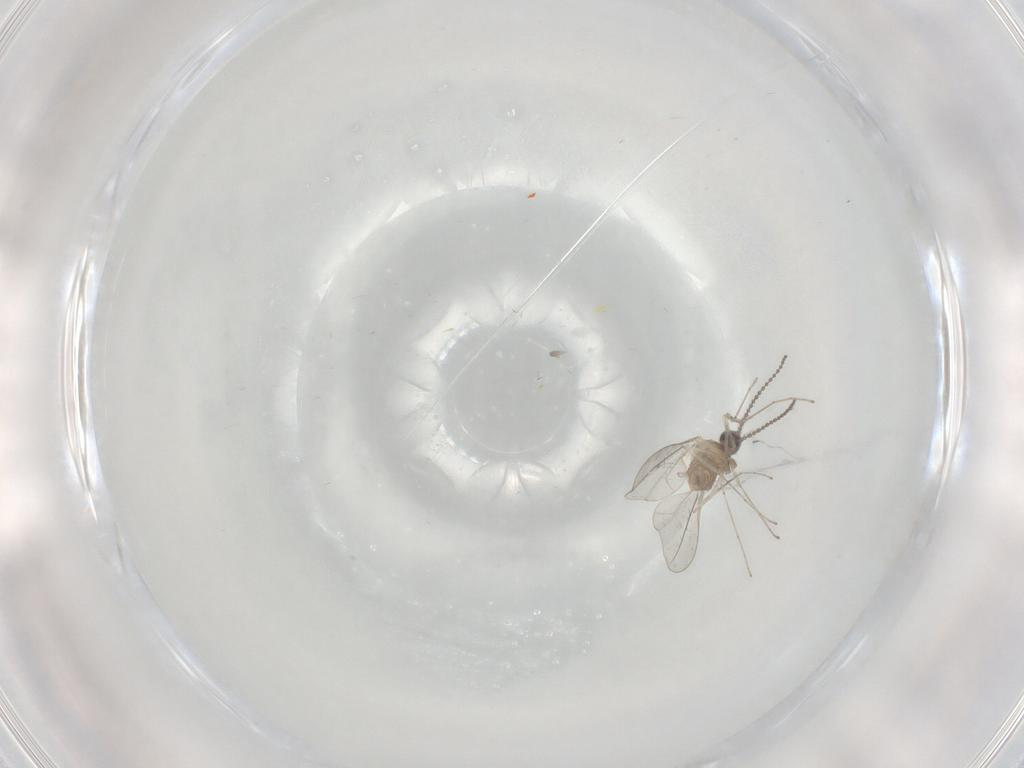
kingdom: Animalia
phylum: Arthropoda
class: Insecta
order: Diptera
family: Cecidomyiidae
